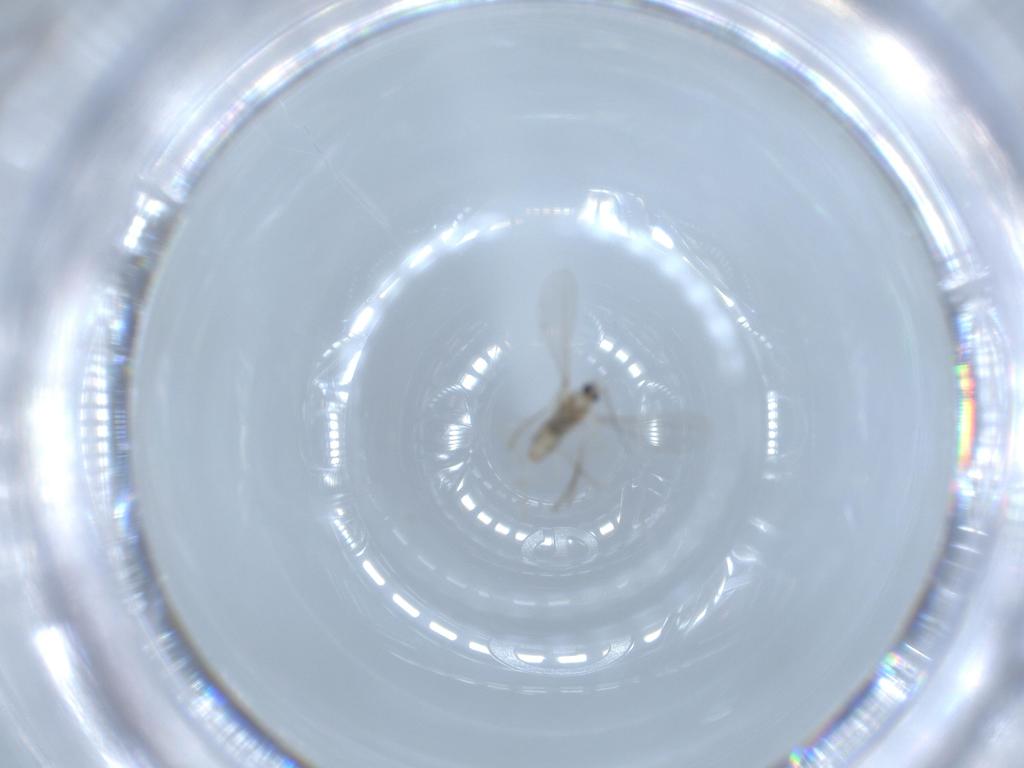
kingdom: Animalia
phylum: Arthropoda
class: Insecta
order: Diptera
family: Sciaridae
